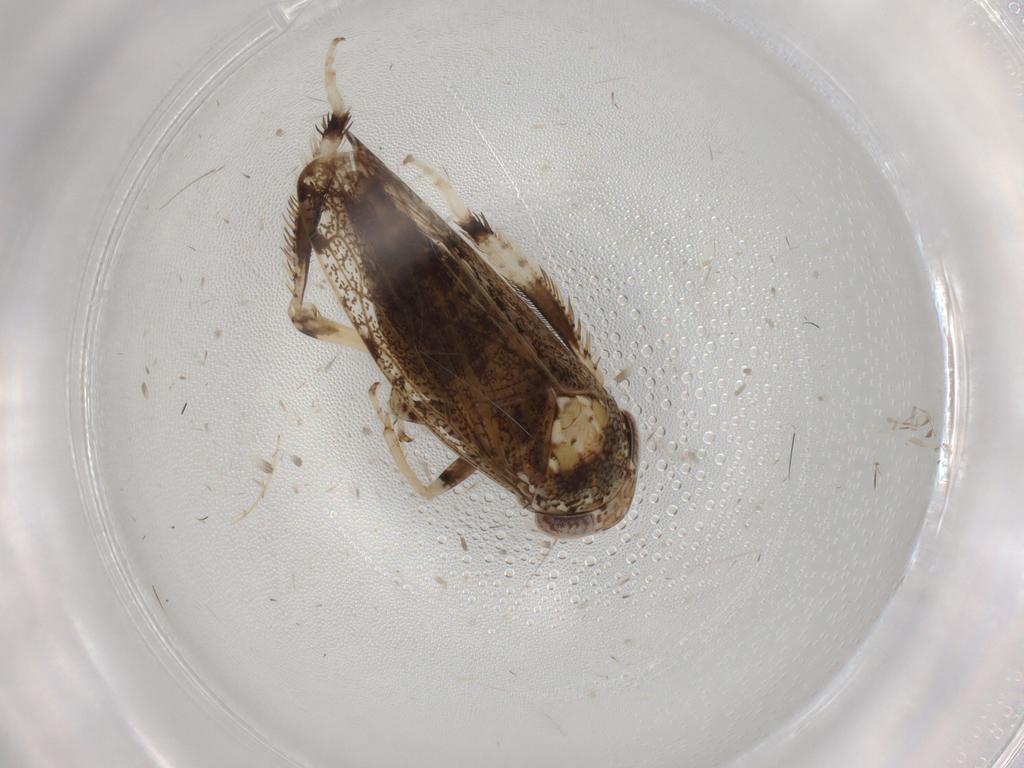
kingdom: Animalia
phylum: Arthropoda
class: Insecta
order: Hemiptera
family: Cicadellidae
